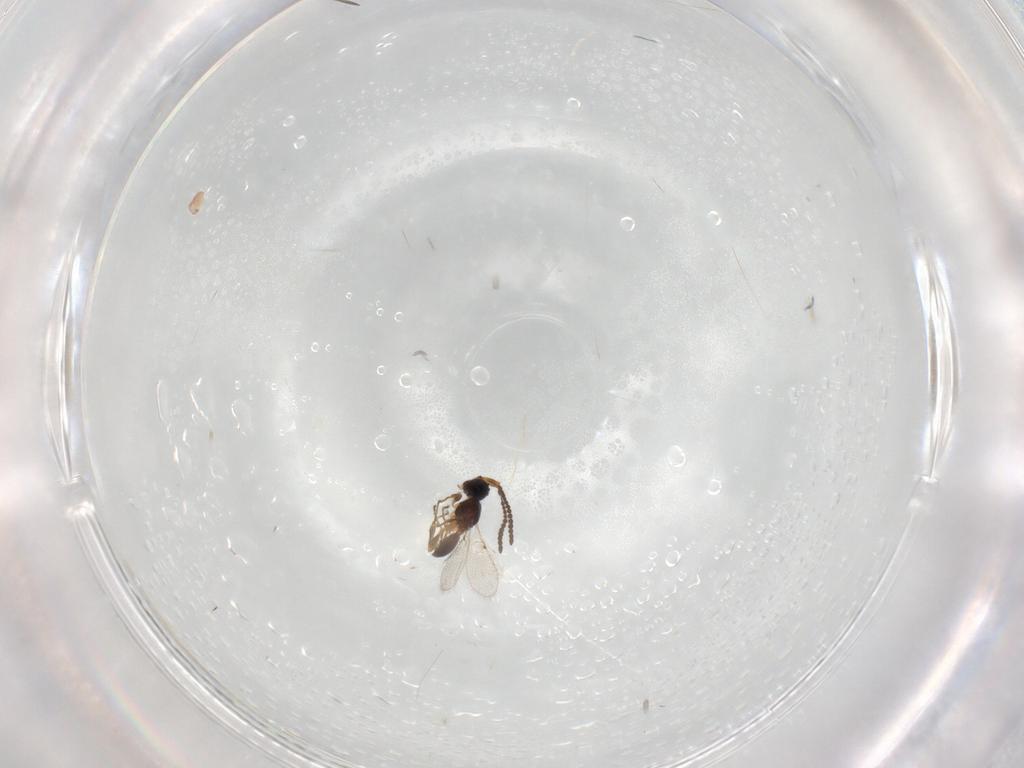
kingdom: Animalia
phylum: Arthropoda
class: Insecta
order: Hymenoptera
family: Diapriidae
